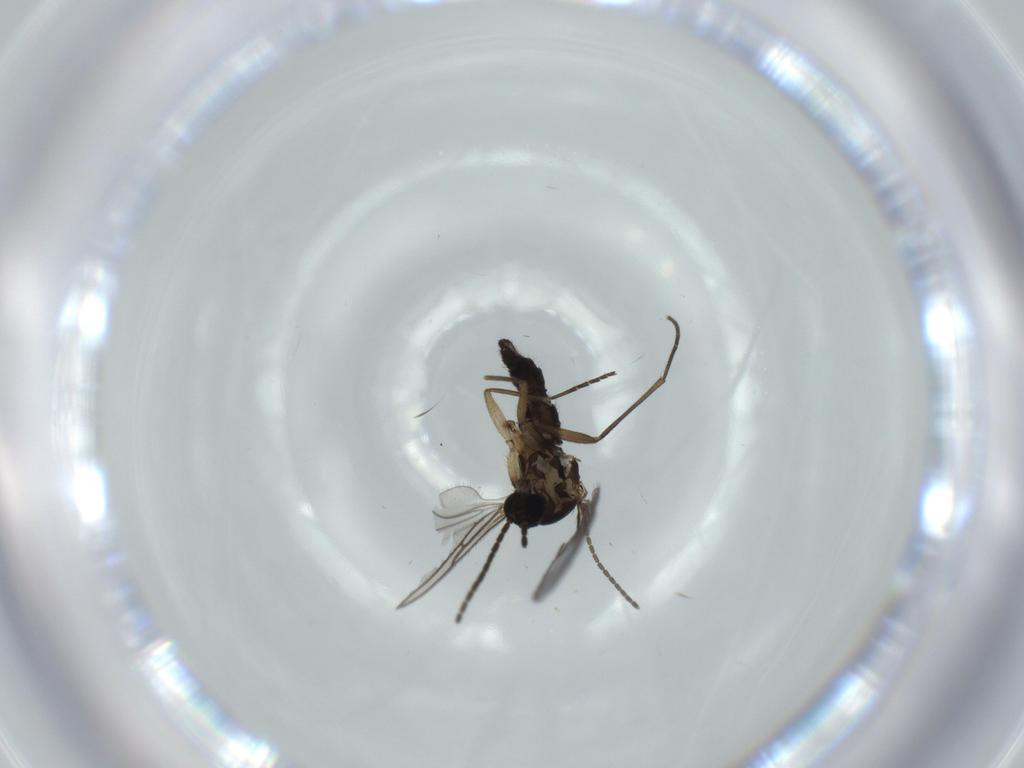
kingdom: Animalia
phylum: Arthropoda
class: Insecta
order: Diptera
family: Sciaridae
